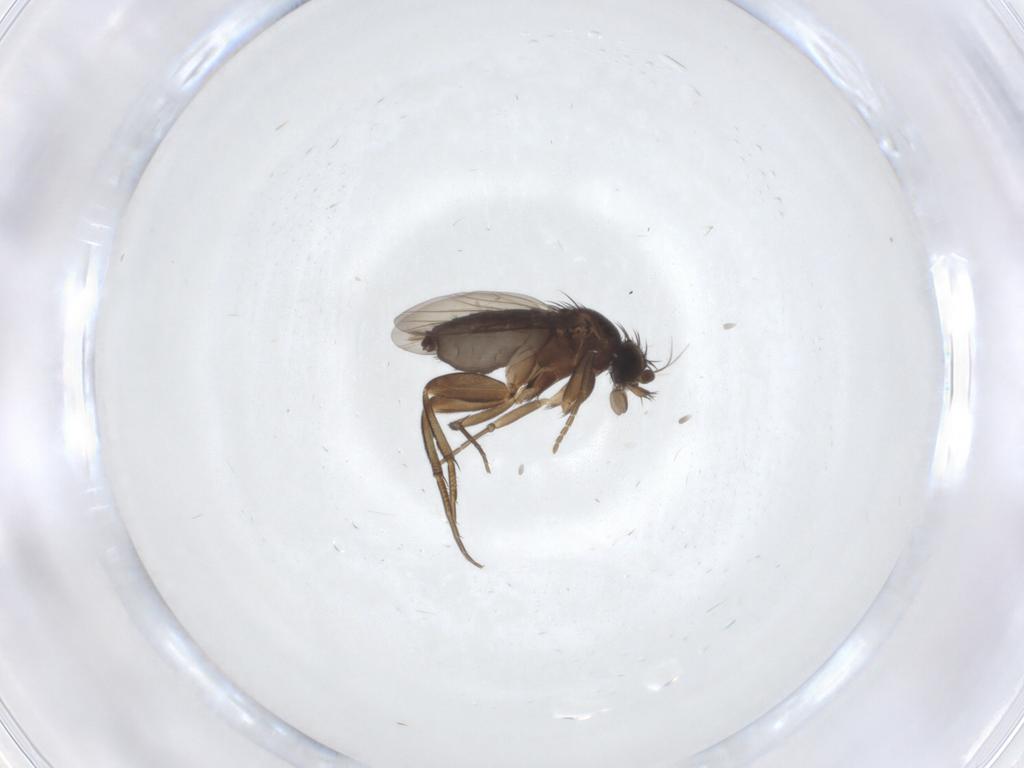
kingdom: Animalia
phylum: Arthropoda
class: Insecta
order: Diptera
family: Phoridae
